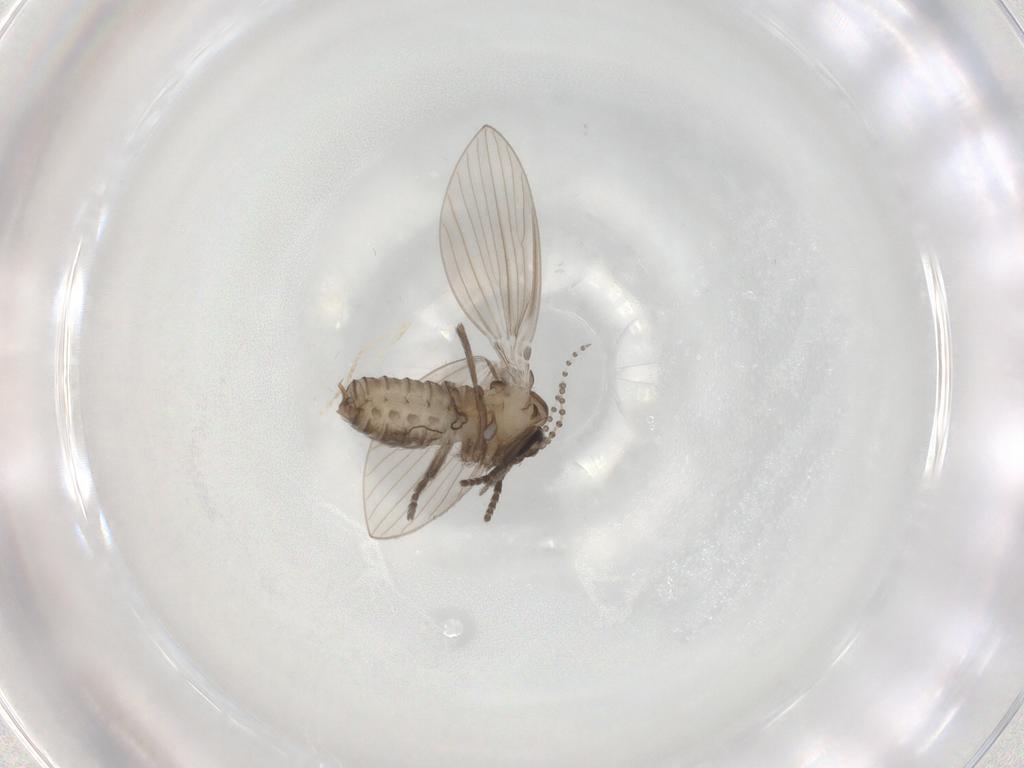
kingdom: Animalia
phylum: Arthropoda
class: Insecta
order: Diptera
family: Psychodidae
